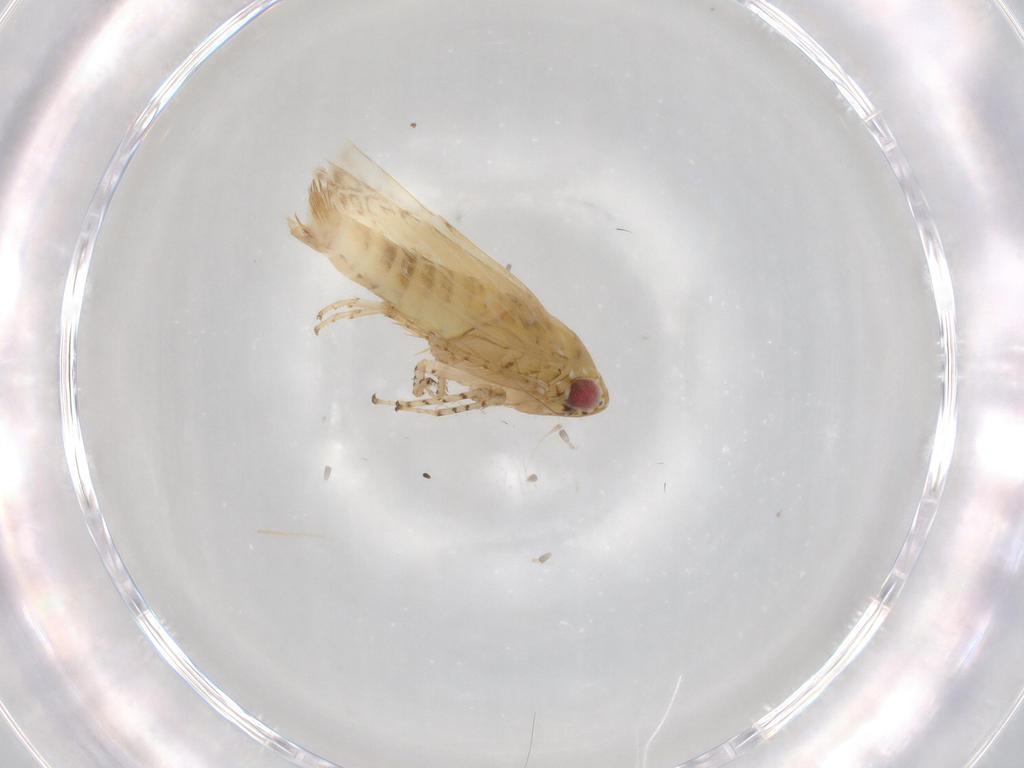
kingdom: Animalia
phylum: Arthropoda
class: Insecta
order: Hemiptera
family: Cicadellidae
